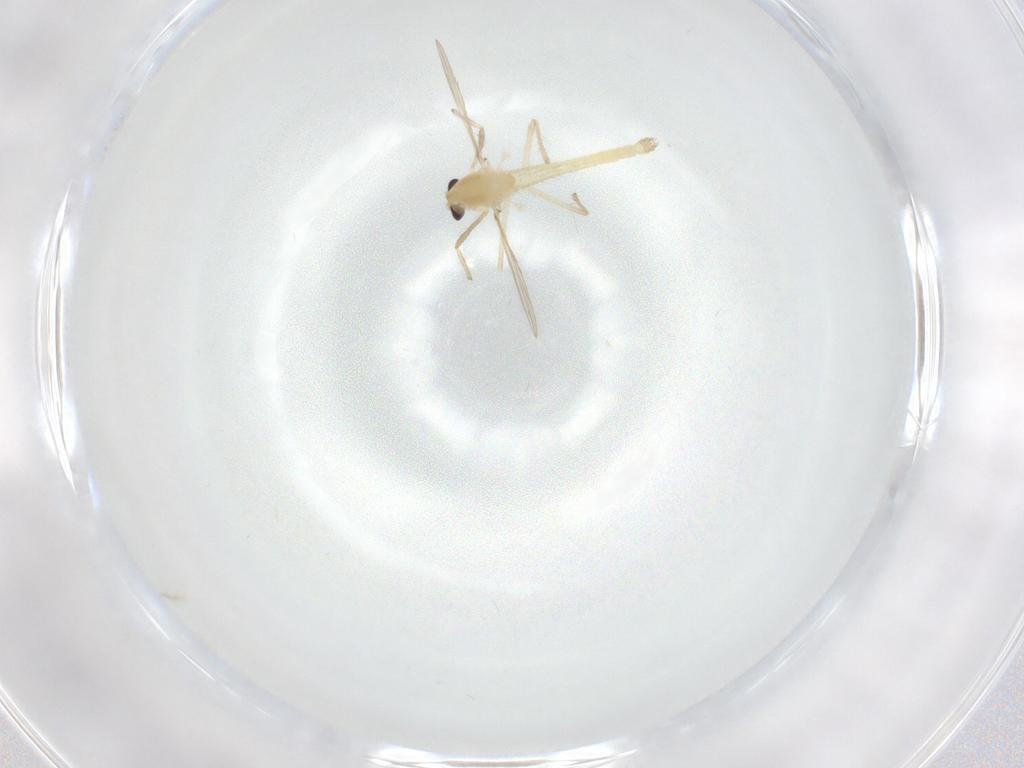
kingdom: Animalia
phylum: Arthropoda
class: Insecta
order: Diptera
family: Chironomidae
